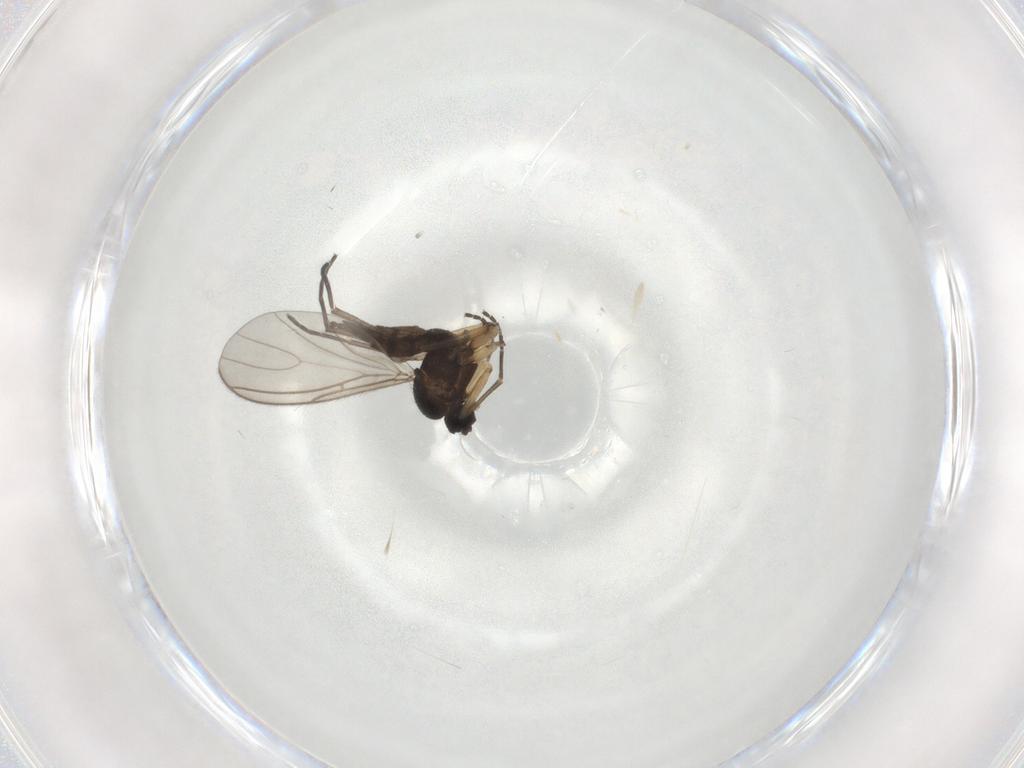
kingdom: Animalia
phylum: Arthropoda
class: Insecta
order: Diptera
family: Sciaridae
